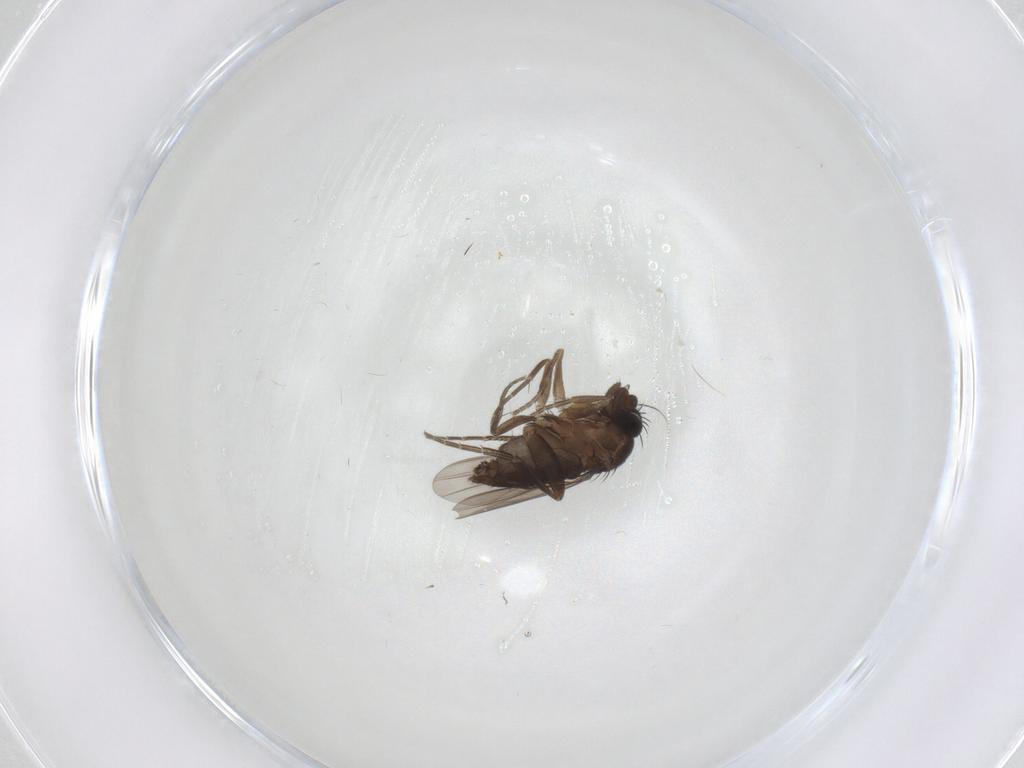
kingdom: Animalia
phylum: Arthropoda
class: Insecta
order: Diptera
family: Phoridae
